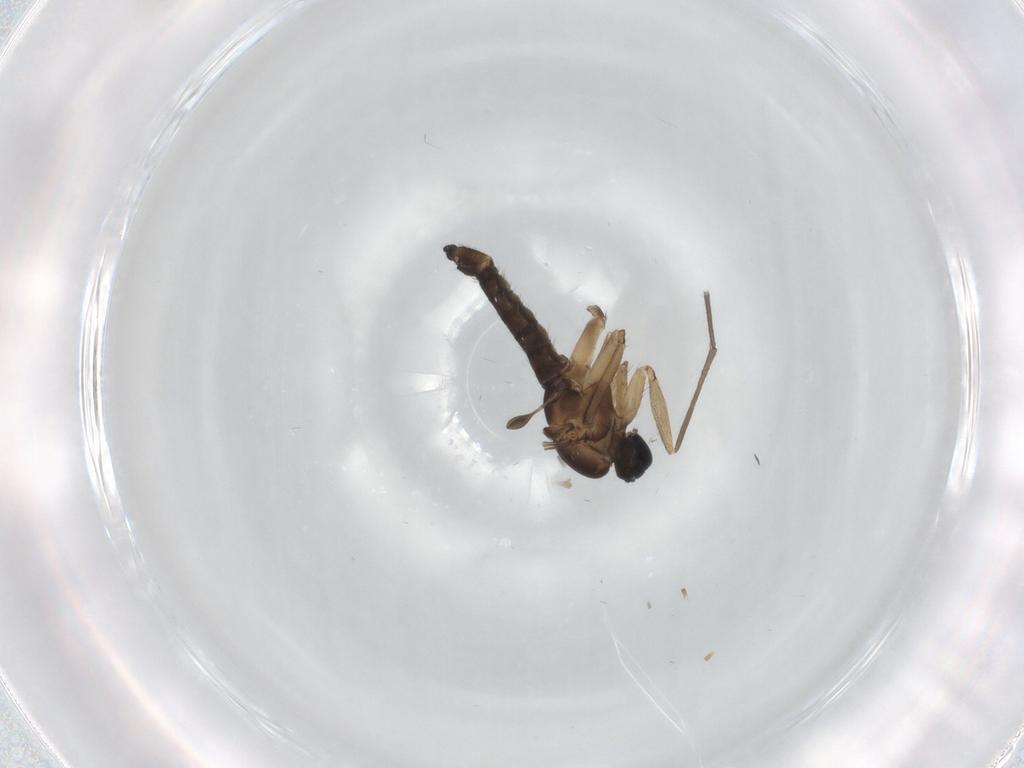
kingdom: Animalia
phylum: Arthropoda
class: Insecta
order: Diptera
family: Sciaridae
